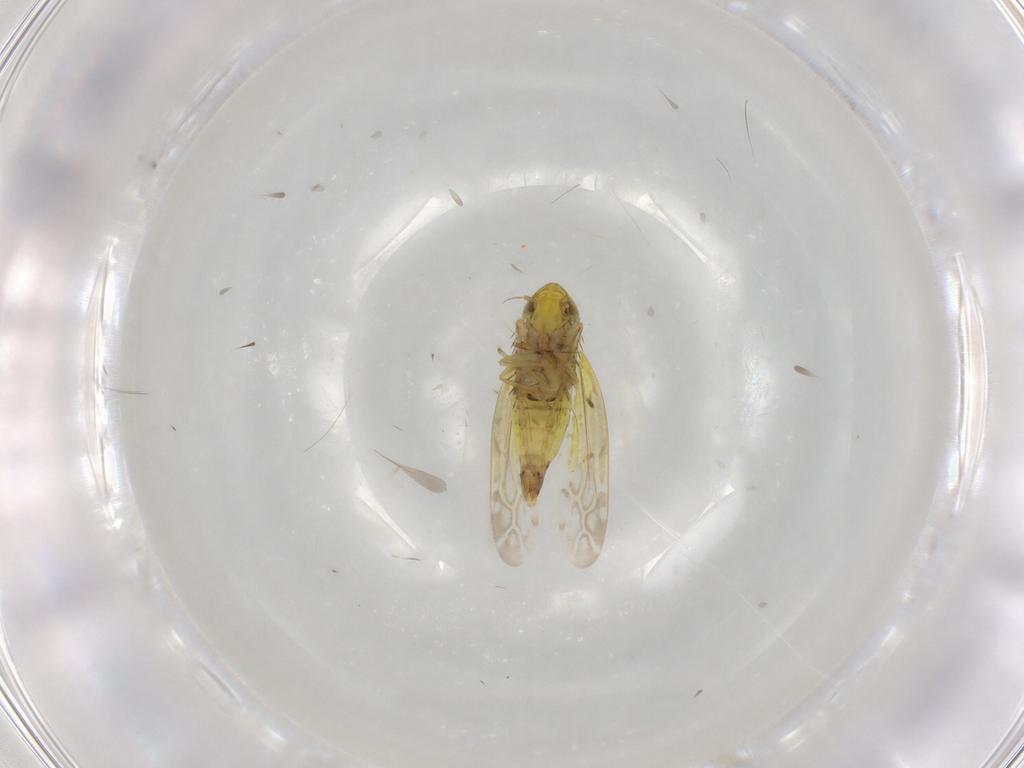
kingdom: Animalia
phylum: Arthropoda
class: Insecta
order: Hemiptera
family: Cicadellidae
